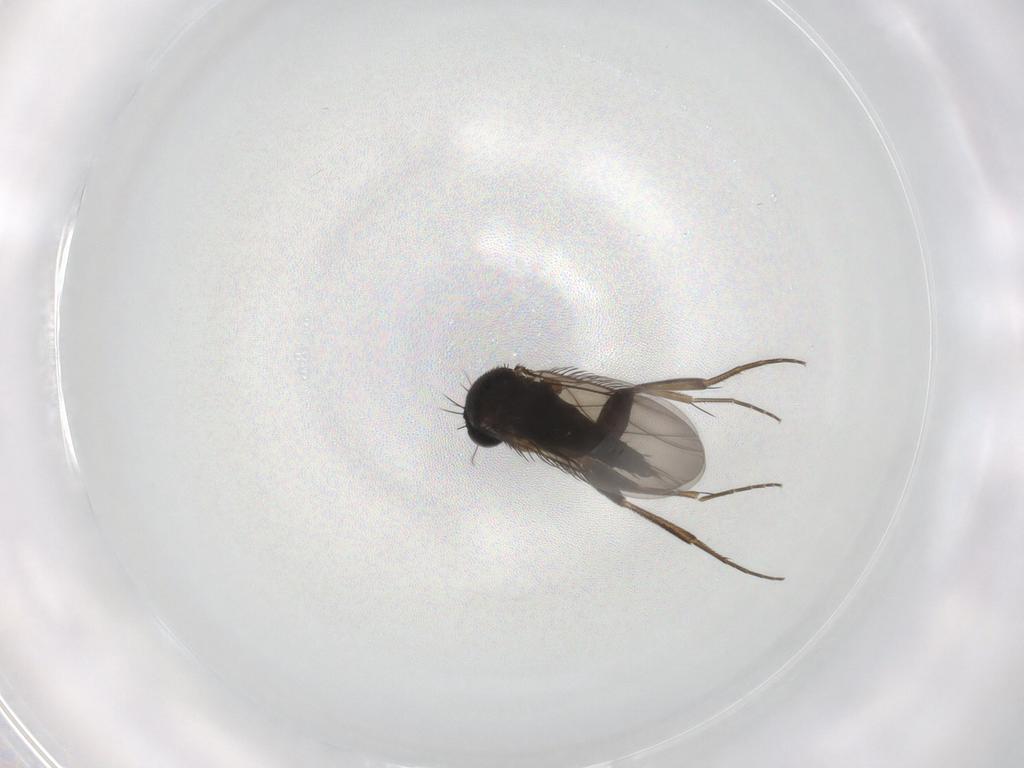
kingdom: Animalia
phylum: Arthropoda
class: Insecta
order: Diptera
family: Phoridae
